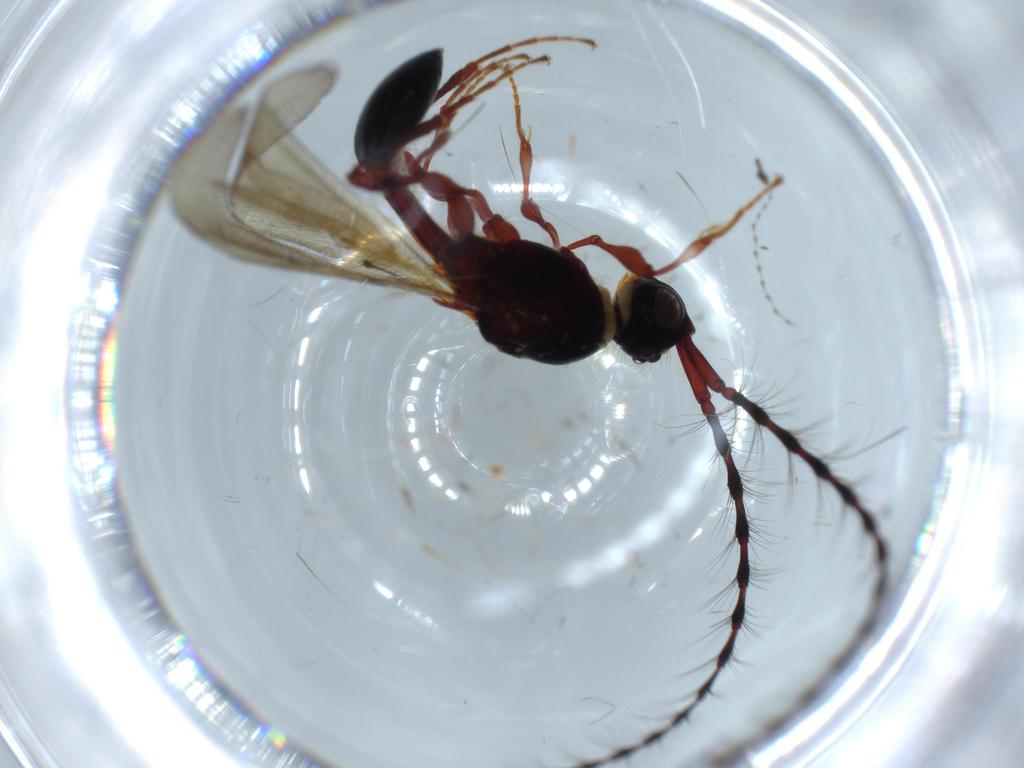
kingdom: Animalia
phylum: Arthropoda
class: Insecta
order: Hymenoptera
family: Diapriidae
